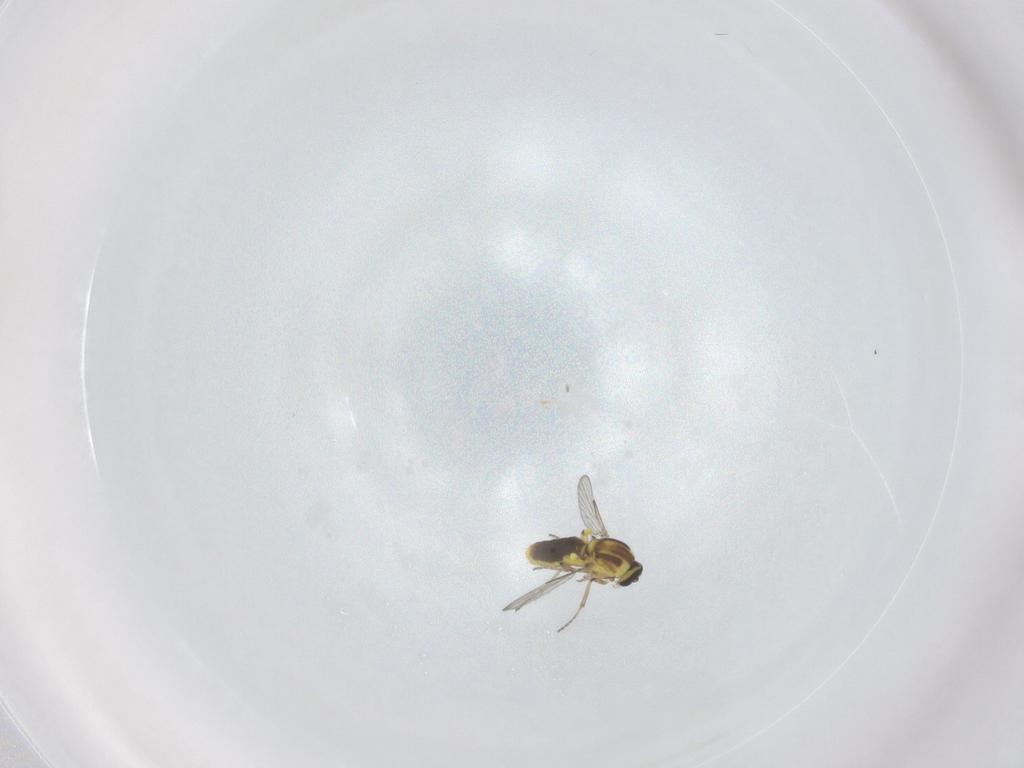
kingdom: Animalia
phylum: Arthropoda
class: Insecta
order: Diptera
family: Ceratopogonidae
